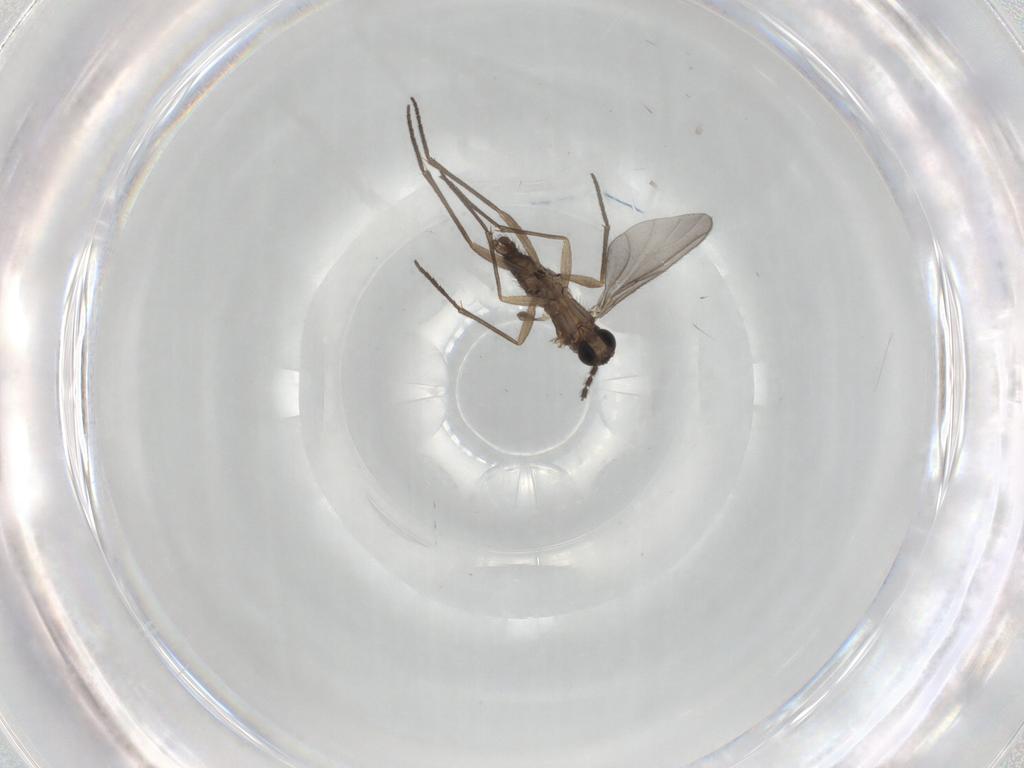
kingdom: Animalia
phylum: Arthropoda
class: Insecta
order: Diptera
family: Sciaridae
